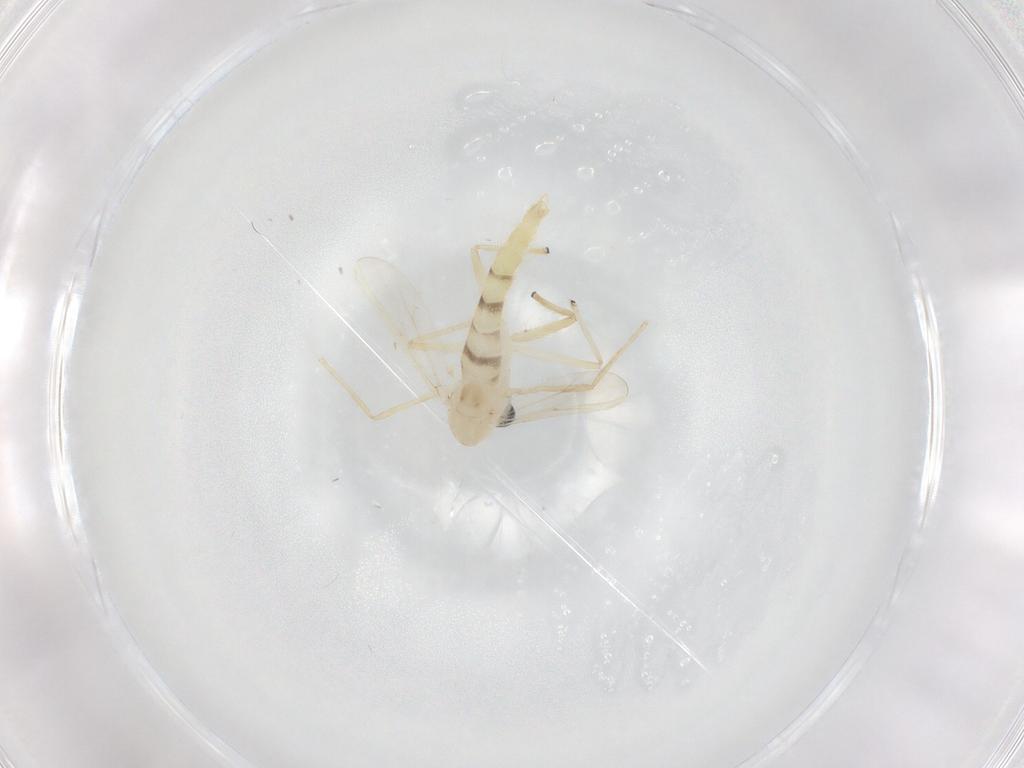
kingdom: Animalia
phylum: Arthropoda
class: Insecta
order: Diptera
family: Chironomidae
